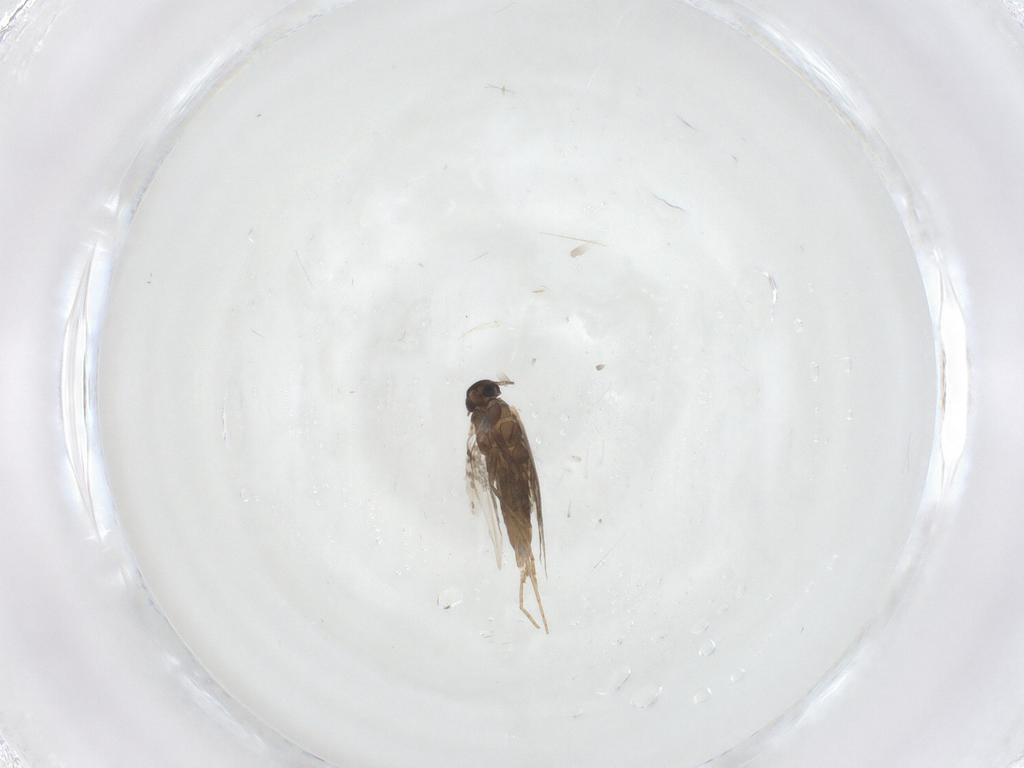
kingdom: Animalia
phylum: Arthropoda
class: Insecta
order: Lepidoptera
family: Heliozelidae
